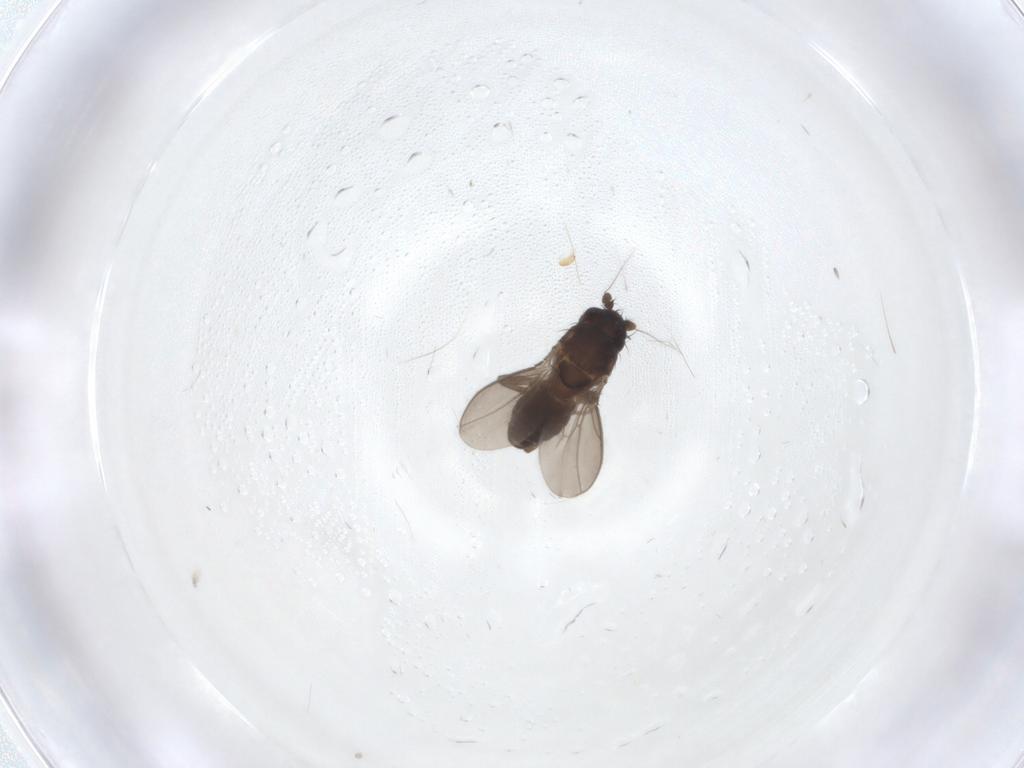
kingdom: Animalia
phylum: Arthropoda
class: Insecta
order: Diptera
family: Sphaeroceridae
